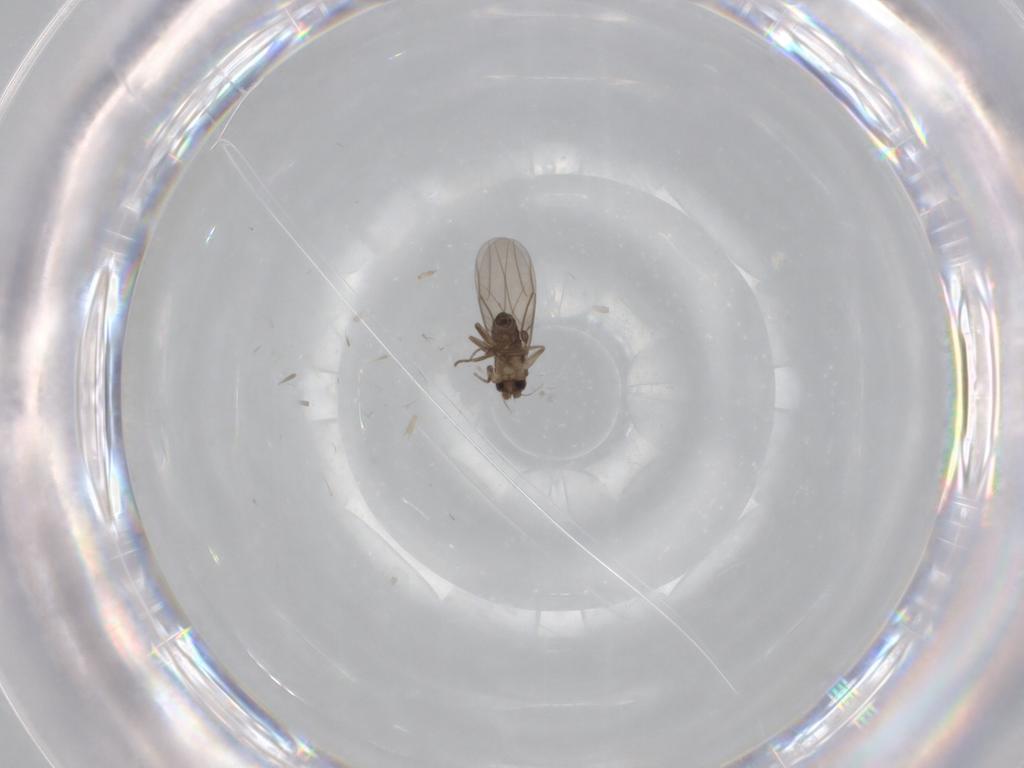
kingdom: Animalia
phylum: Arthropoda
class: Insecta
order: Diptera
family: Phoridae
